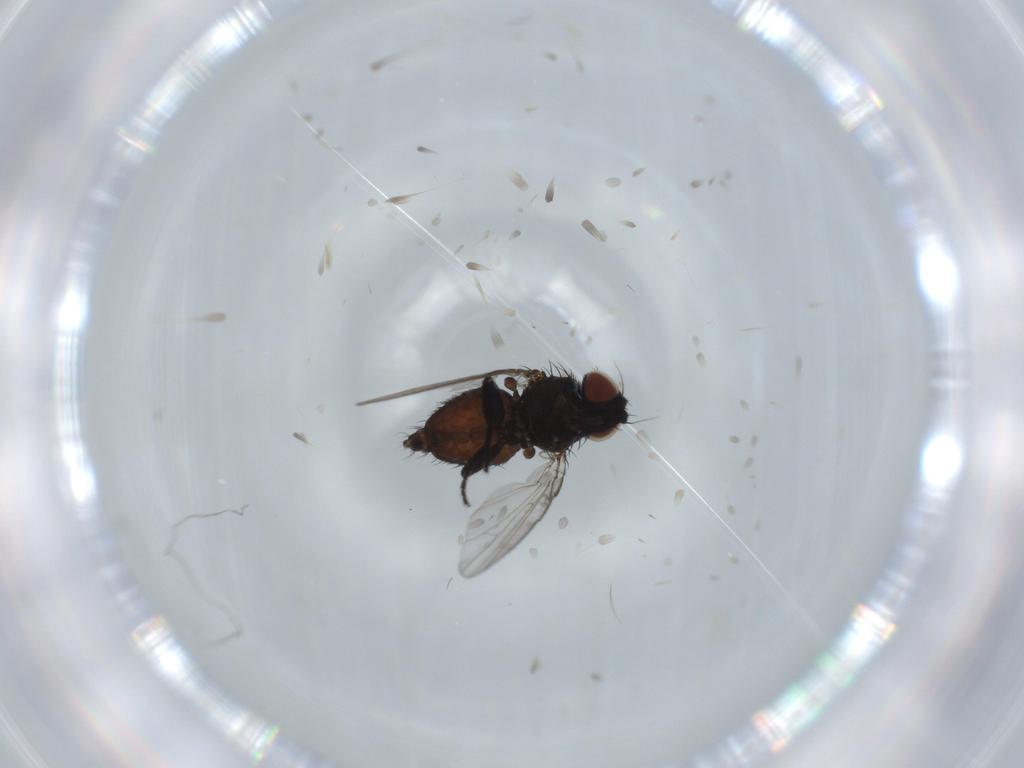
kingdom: Animalia
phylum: Arthropoda
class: Insecta
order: Diptera
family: Milichiidae
